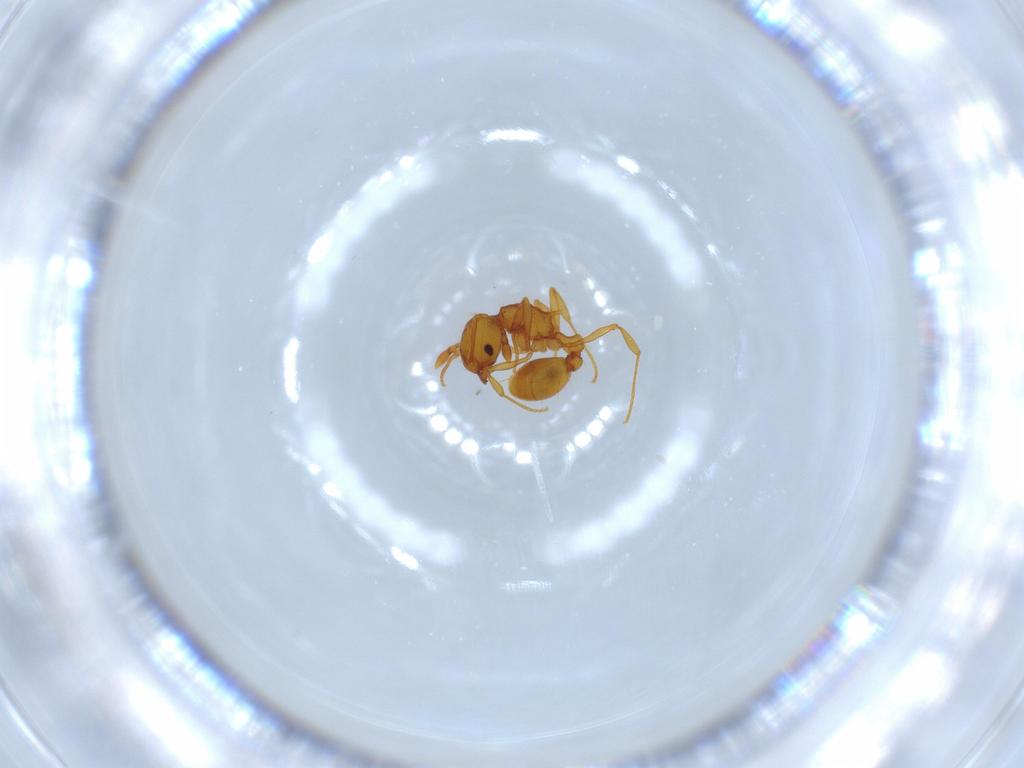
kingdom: Animalia
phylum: Arthropoda
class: Insecta
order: Hymenoptera
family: Formicidae
